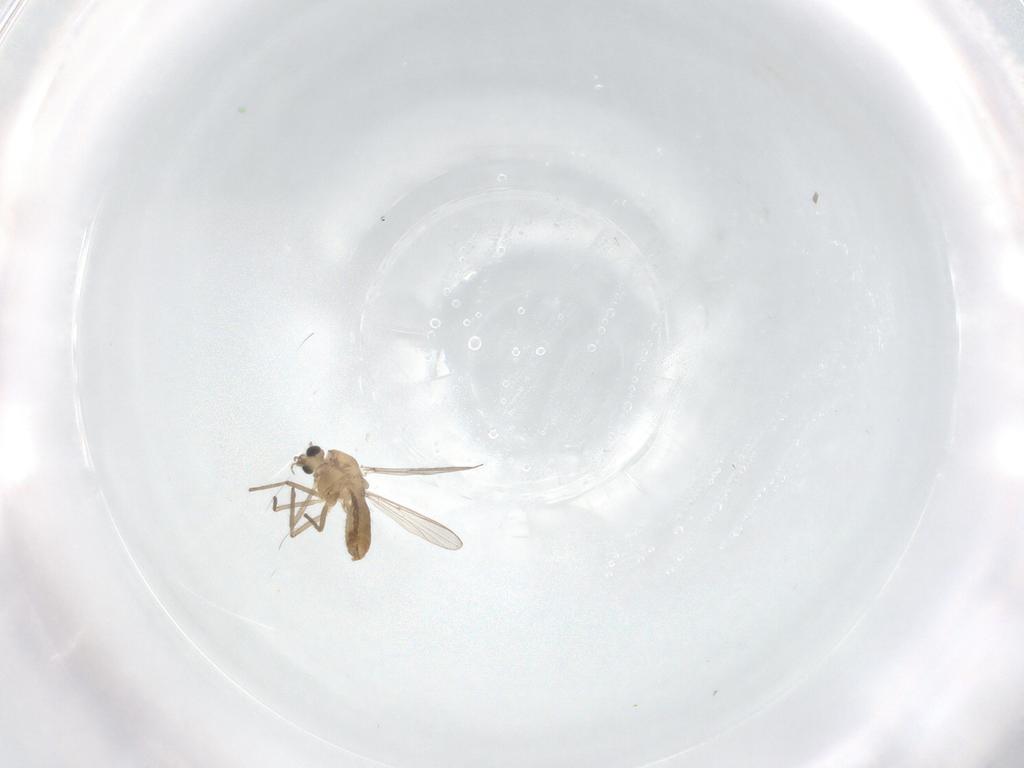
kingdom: Animalia
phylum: Arthropoda
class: Insecta
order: Diptera
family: Chironomidae
